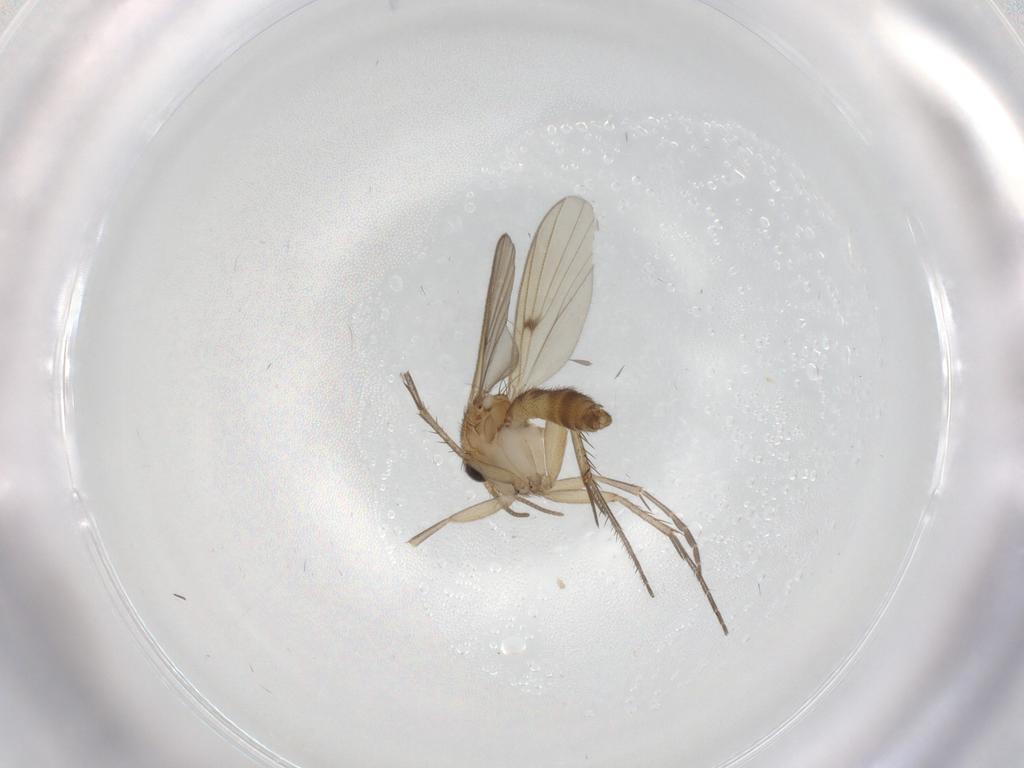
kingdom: Animalia
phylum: Arthropoda
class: Insecta
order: Diptera
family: Mycetophilidae
